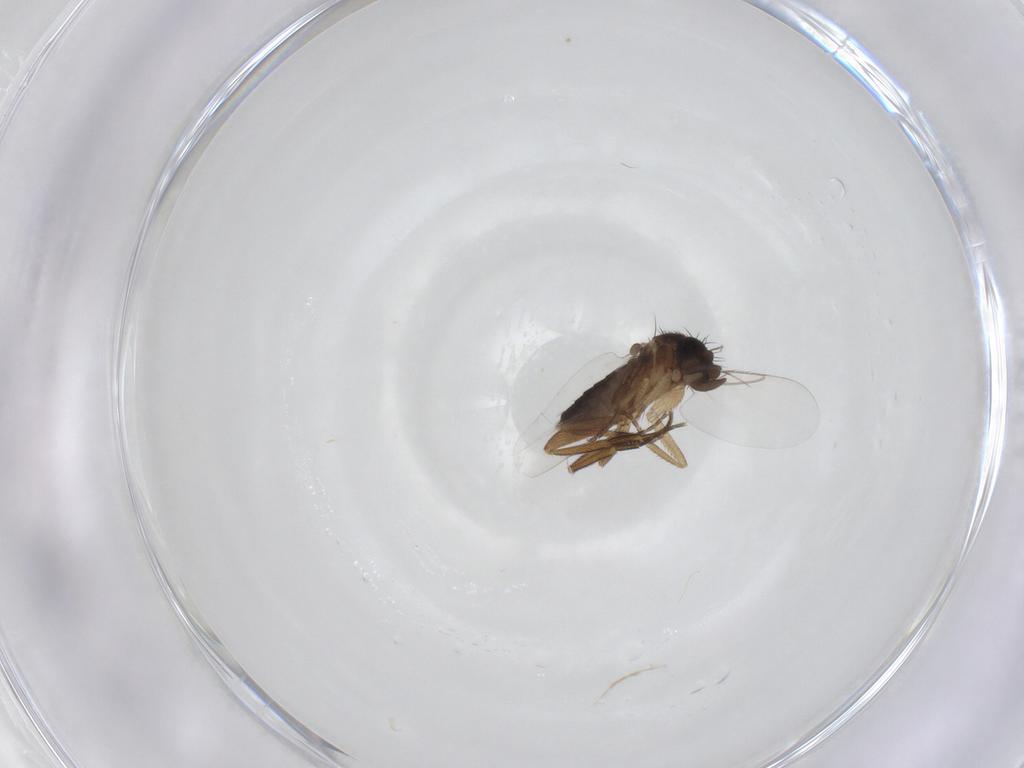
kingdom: Animalia
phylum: Arthropoda
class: Insecta
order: Diptera
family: Phoridae
